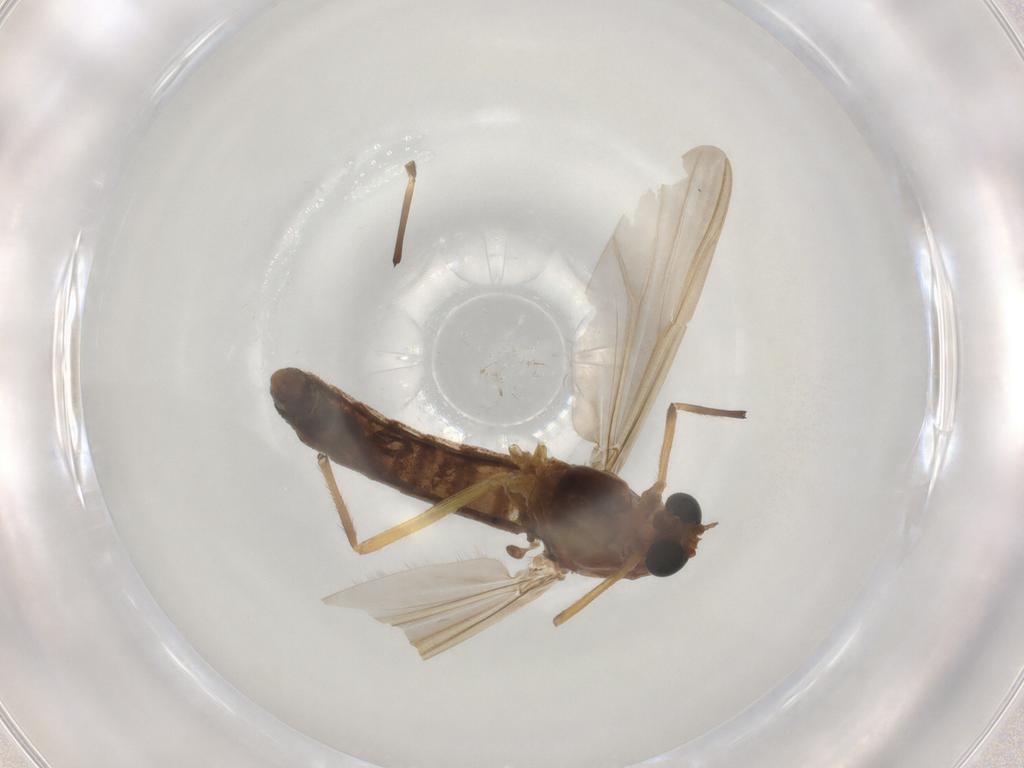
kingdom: Animalia
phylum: Arthropoda
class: Insecta
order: Diptera
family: Chironomidae
